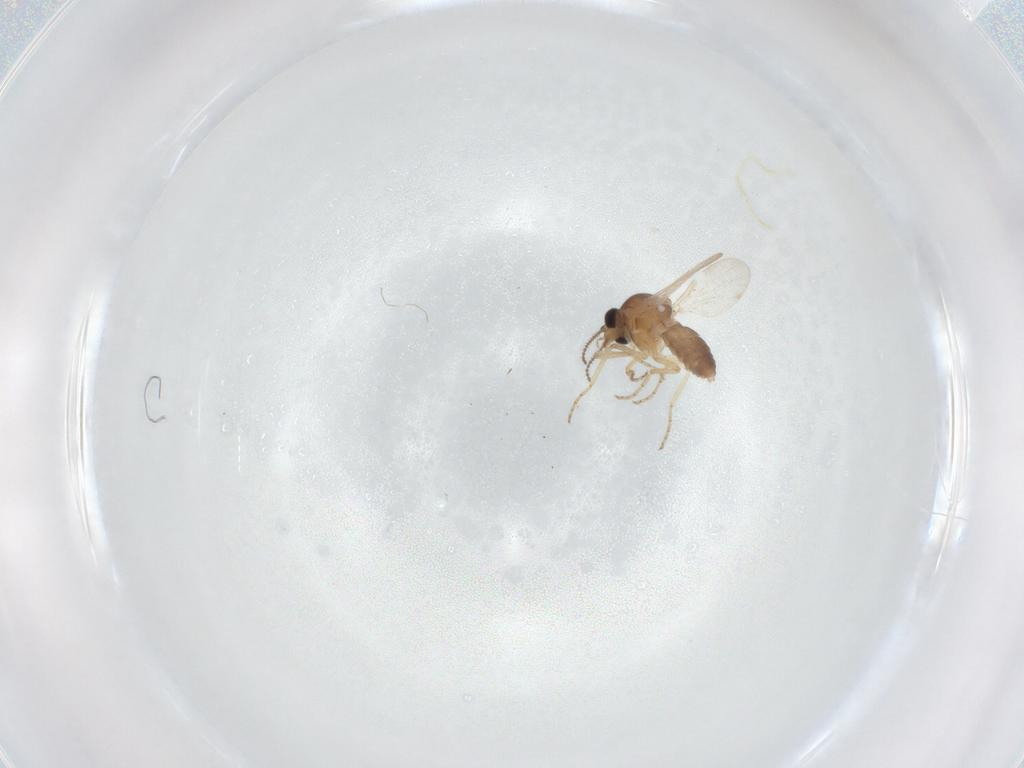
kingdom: Animalia
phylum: Arthropoda
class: Insecta
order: Diptera
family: Ceratopogonidae
